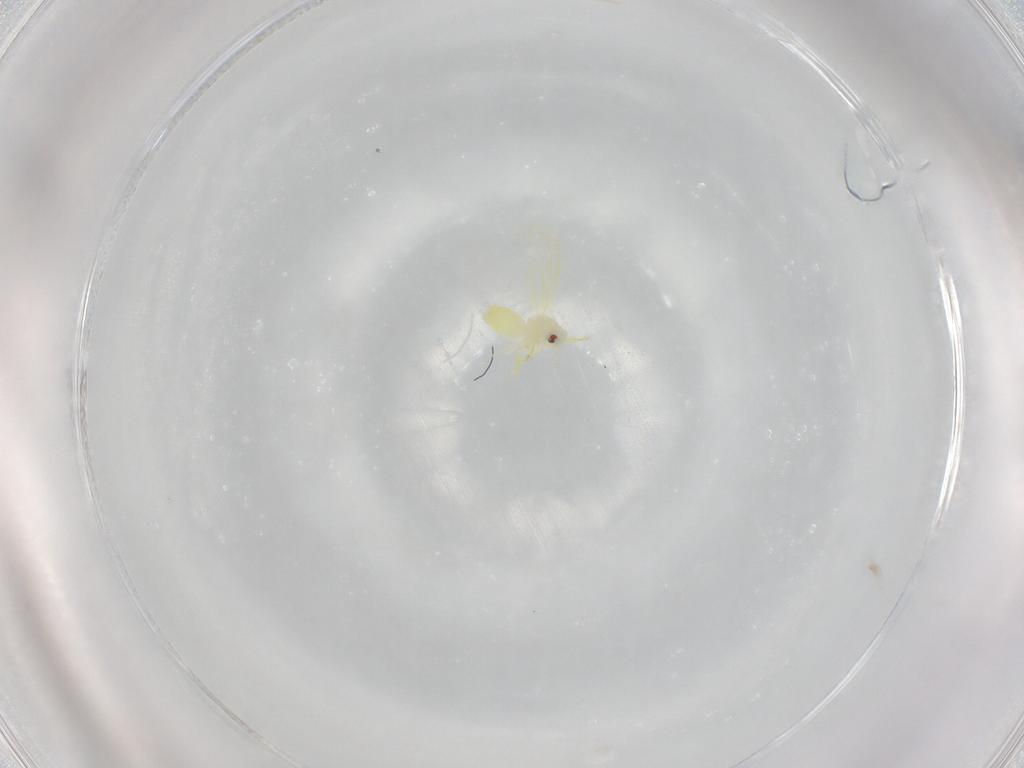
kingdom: Animalia
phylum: Arthropoda
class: Insecta
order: Hemiptera
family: Aleyrodidae
